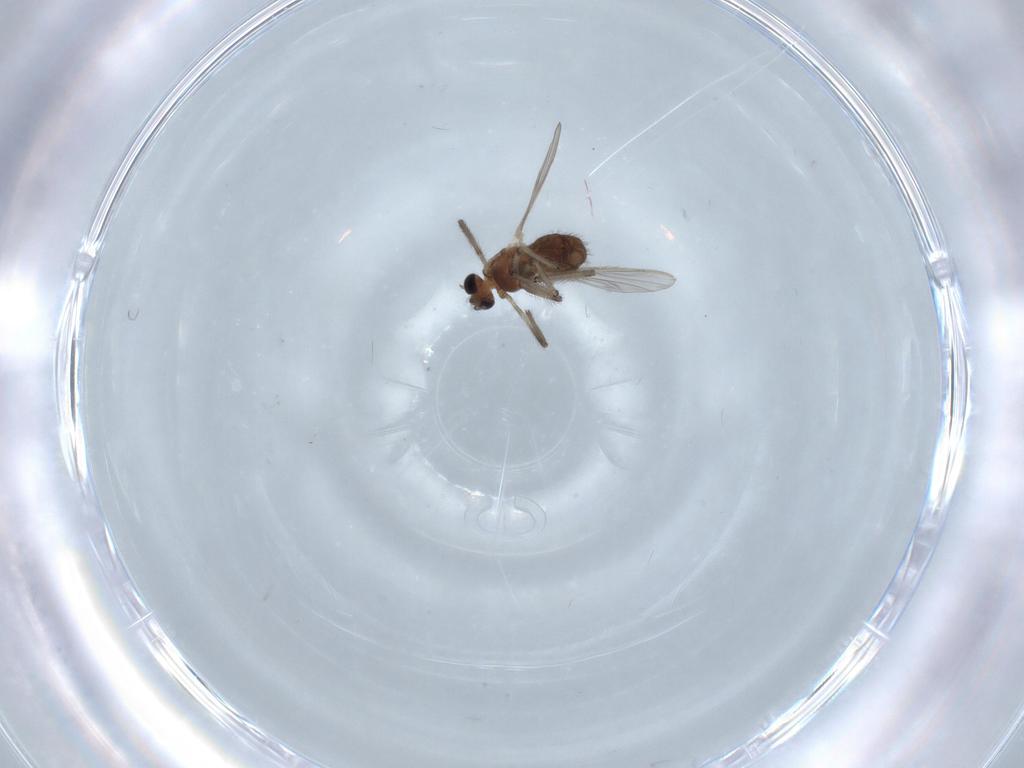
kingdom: Animalia
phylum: Arthropoda
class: Insecta
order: Diptera
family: Chironomidae
